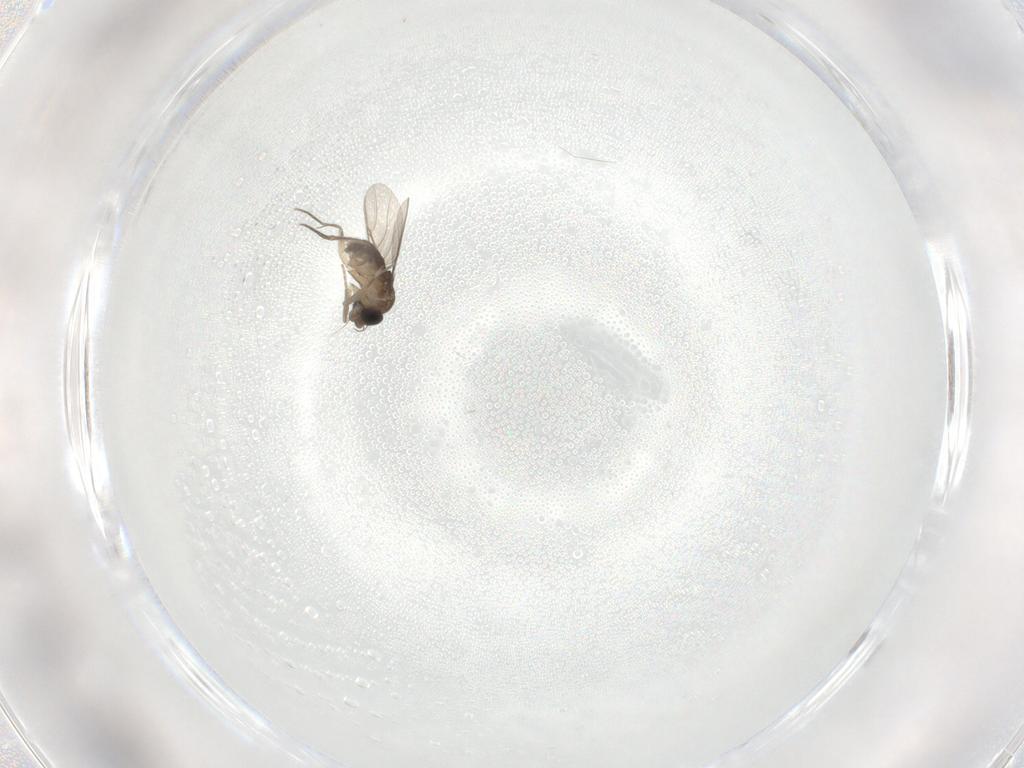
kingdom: Animalia
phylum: Arthropoda
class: Insecta
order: Diptera
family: Phoridae
